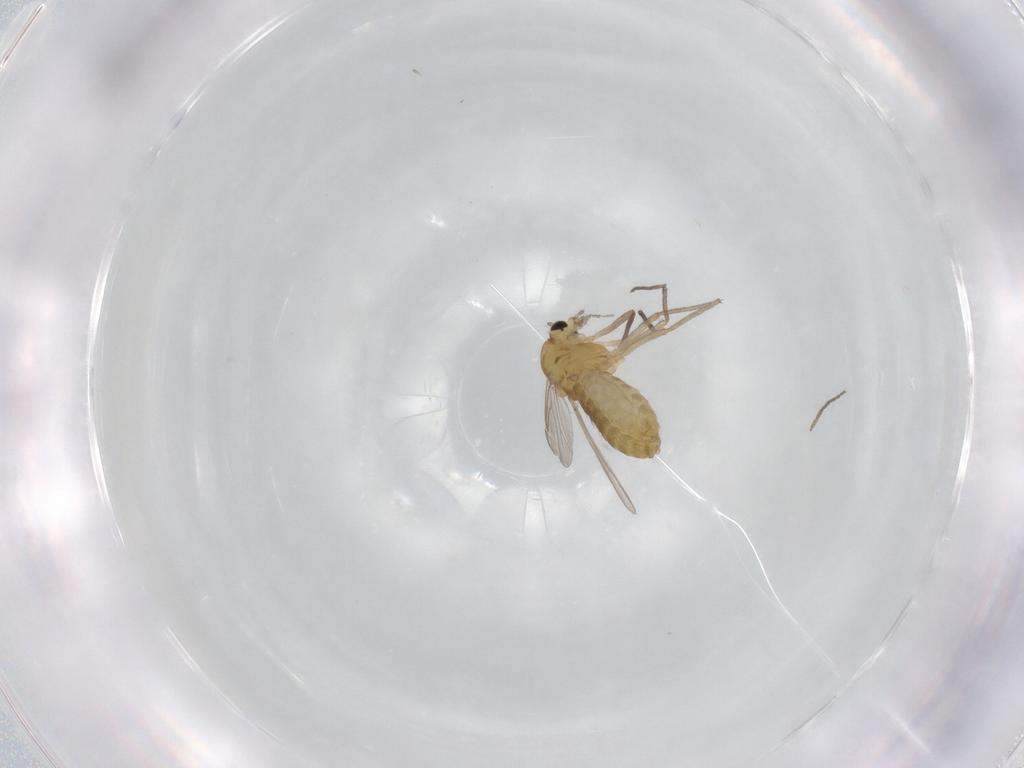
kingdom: Animalia
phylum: Arthropoda
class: Insecta
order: Diptera
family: Chironomidae
